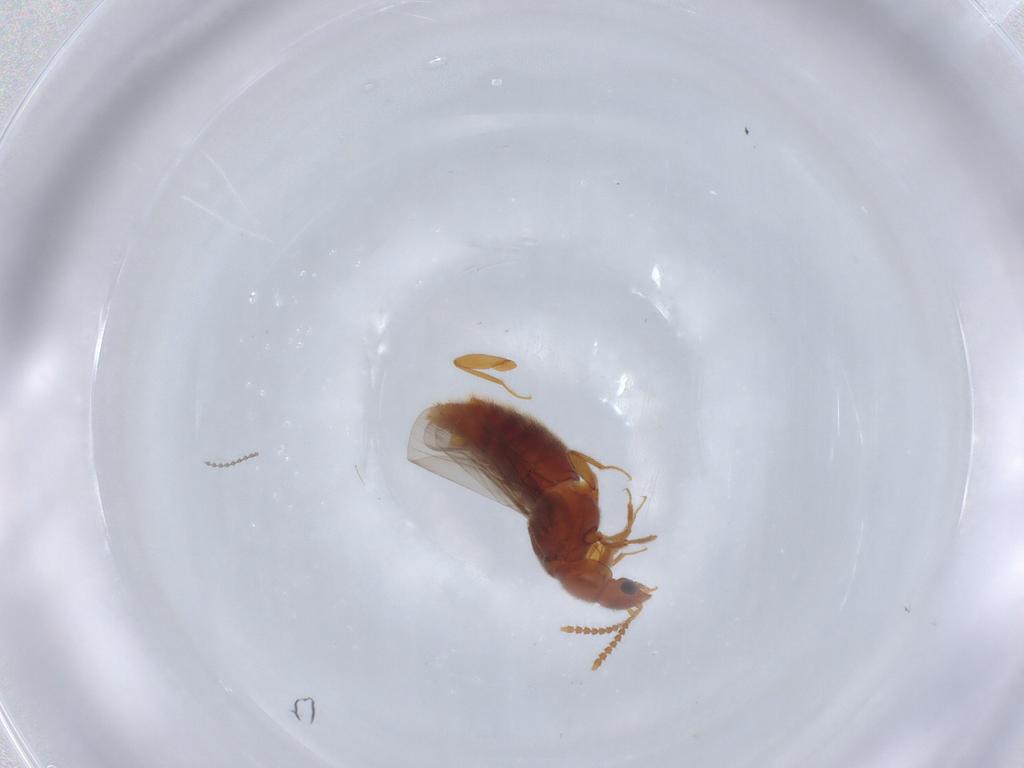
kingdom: Animalia
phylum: Arthropoda
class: Insecta
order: Coleoptera
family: Staphylinidae
